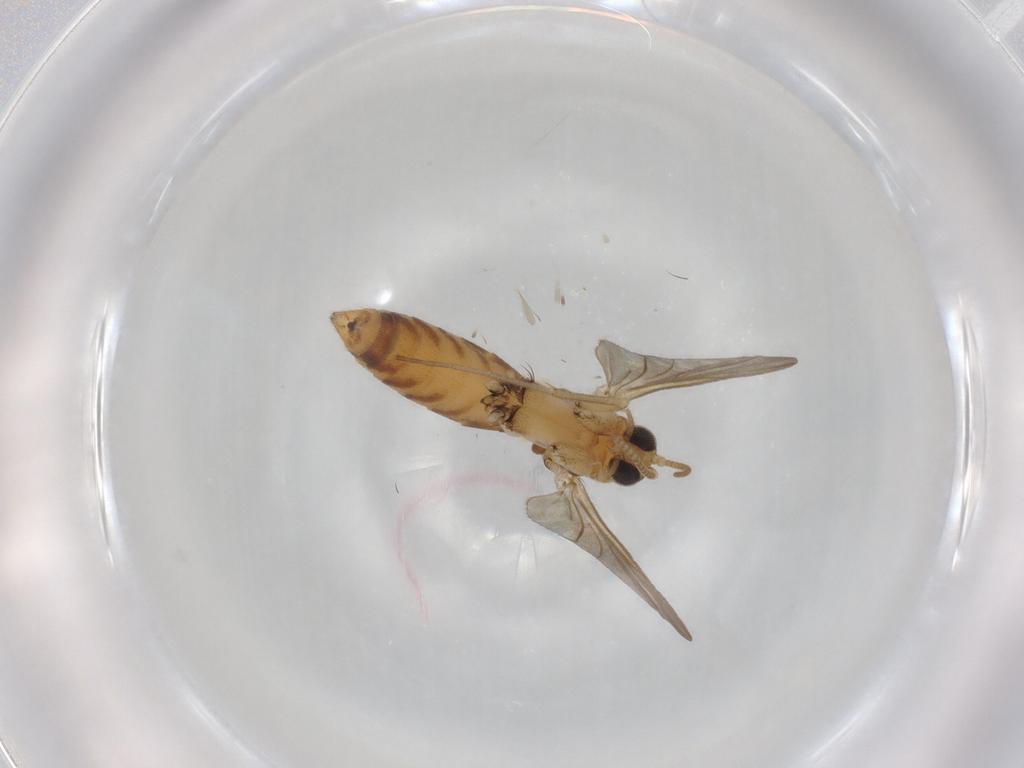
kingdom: Animalia
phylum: Arthropoda
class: Insecta
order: Diptera
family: Mycetophilidae
